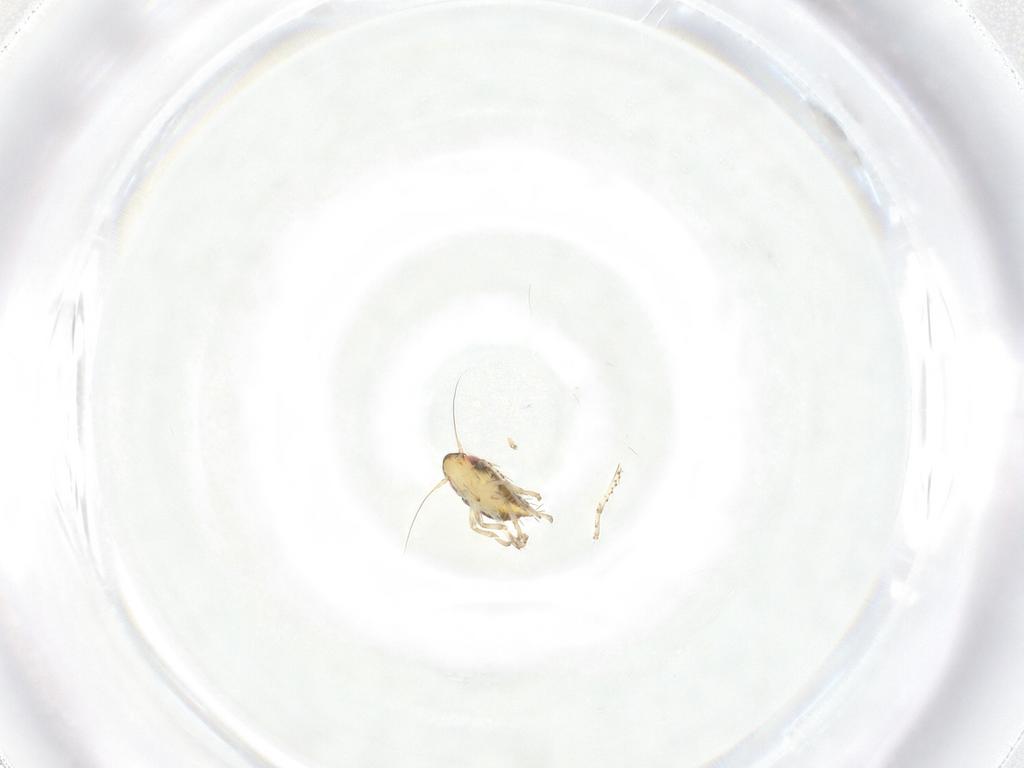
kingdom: Animalia
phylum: Arthropoda
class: Insecta
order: Hemiptera
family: Cicadellidae
